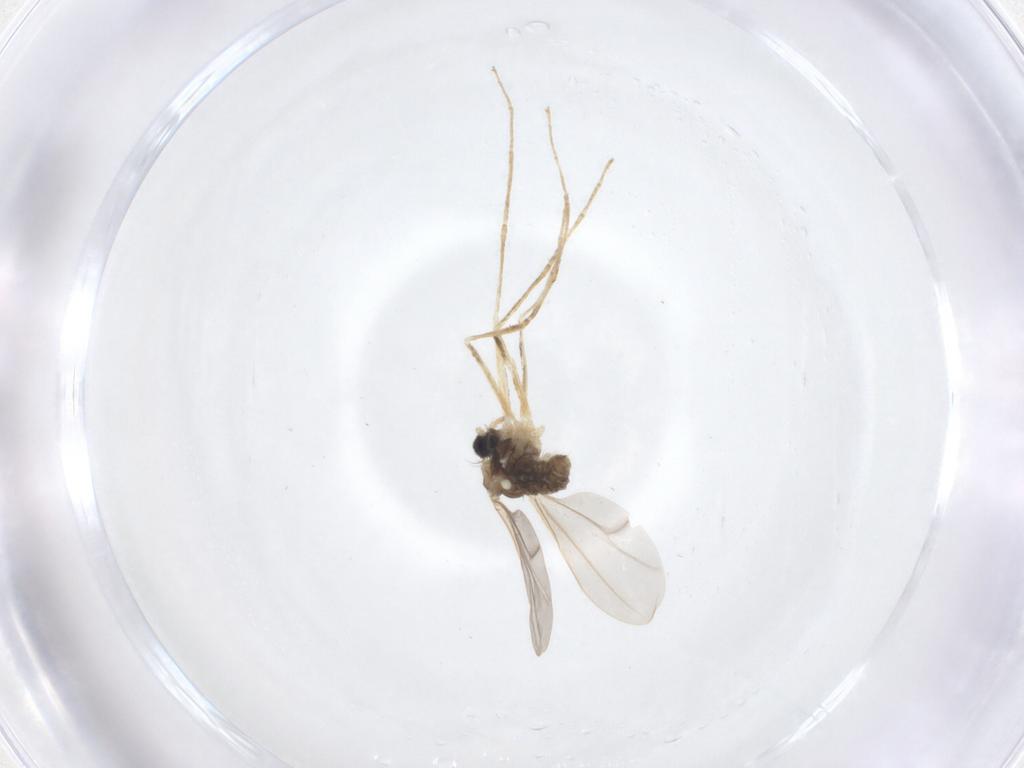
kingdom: Animalia
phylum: Arthropoda
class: Insecta
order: Diptera
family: Cecidomyiidae
